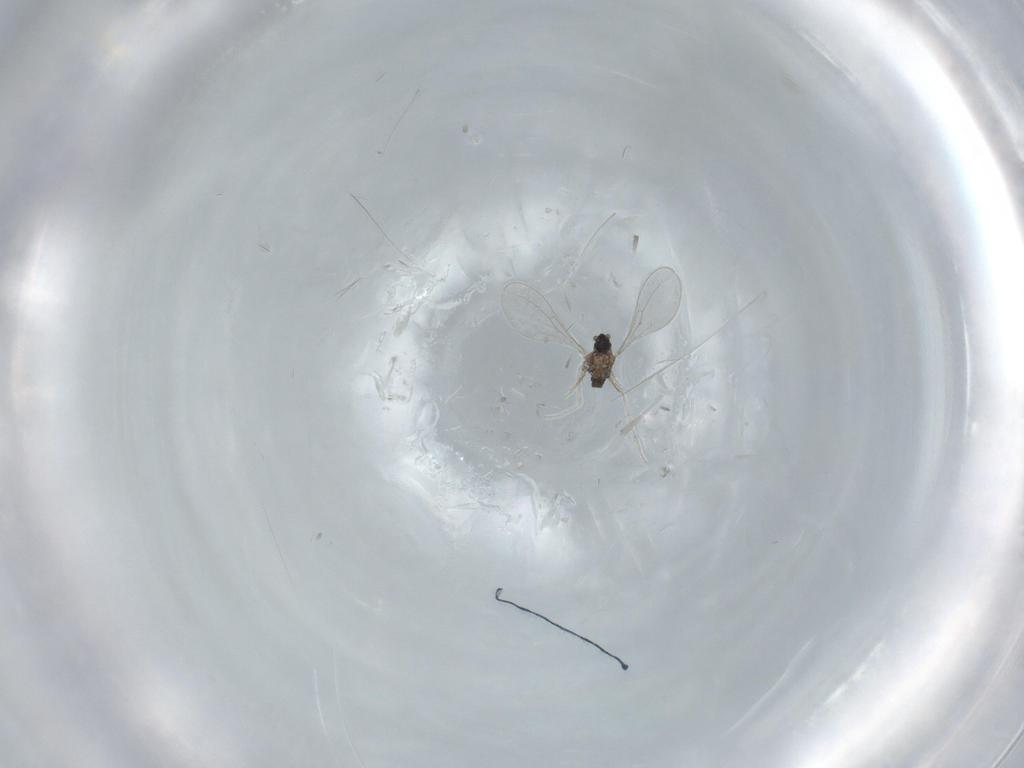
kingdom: Animalia
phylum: Arthropoda
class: Insecta
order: Diptera
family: Cecidomyiidae
